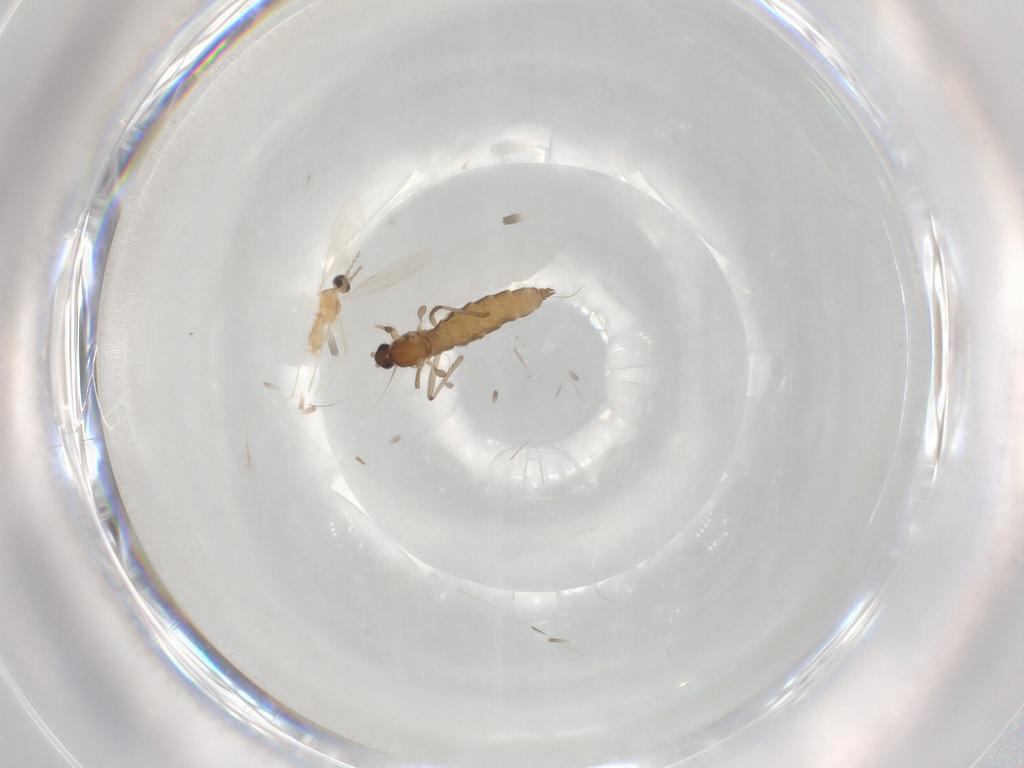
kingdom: Animalia
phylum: Arthropoda
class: Insecta
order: Diptera
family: Cecidomyiidae
